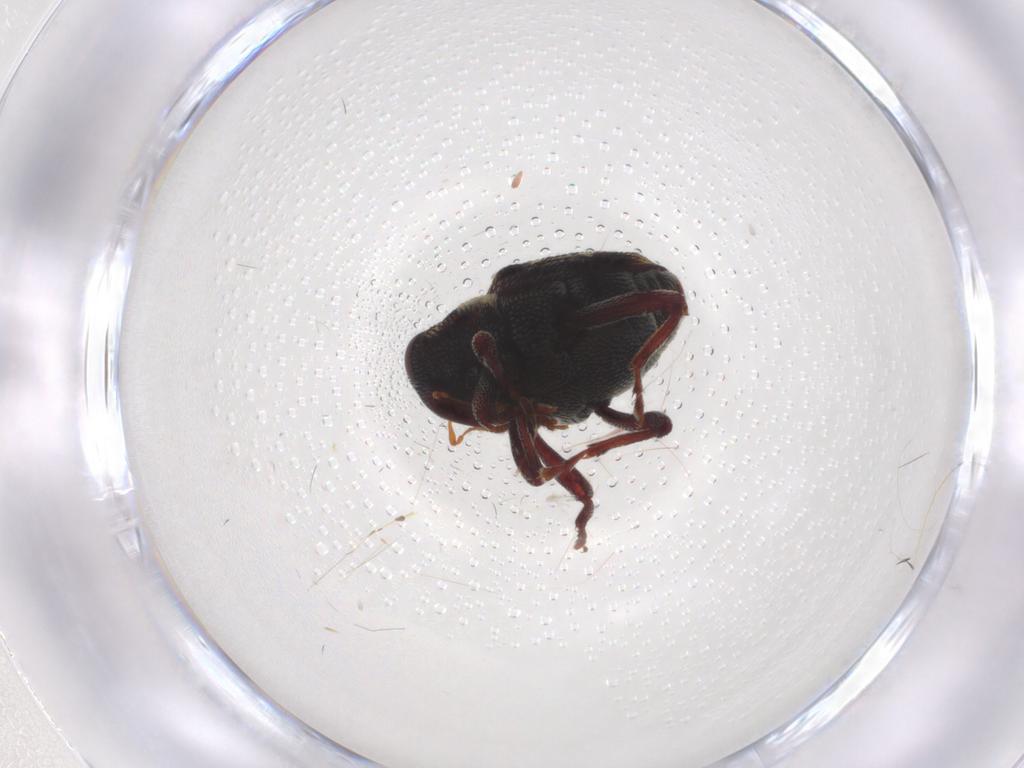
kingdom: Animalia
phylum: Arthropoda
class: Insecta
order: Coleoptera
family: Ptilodactylidae
